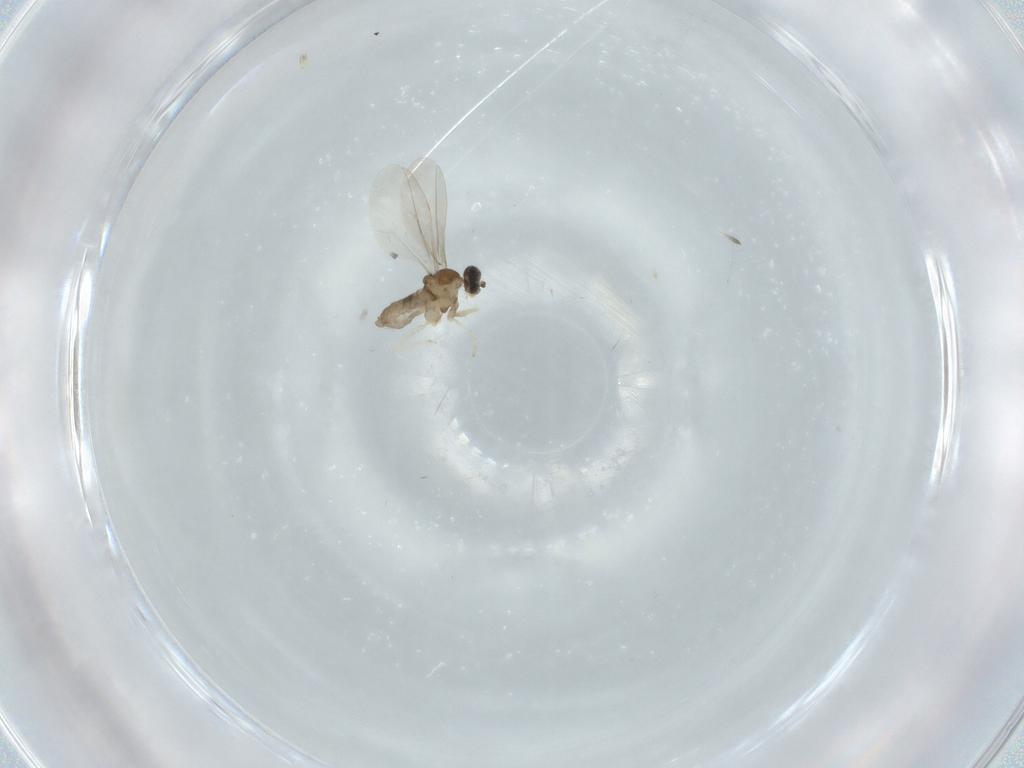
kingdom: Animalia
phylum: Arthropoda
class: Insecta
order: Diptera
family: Cecidomyiidae
